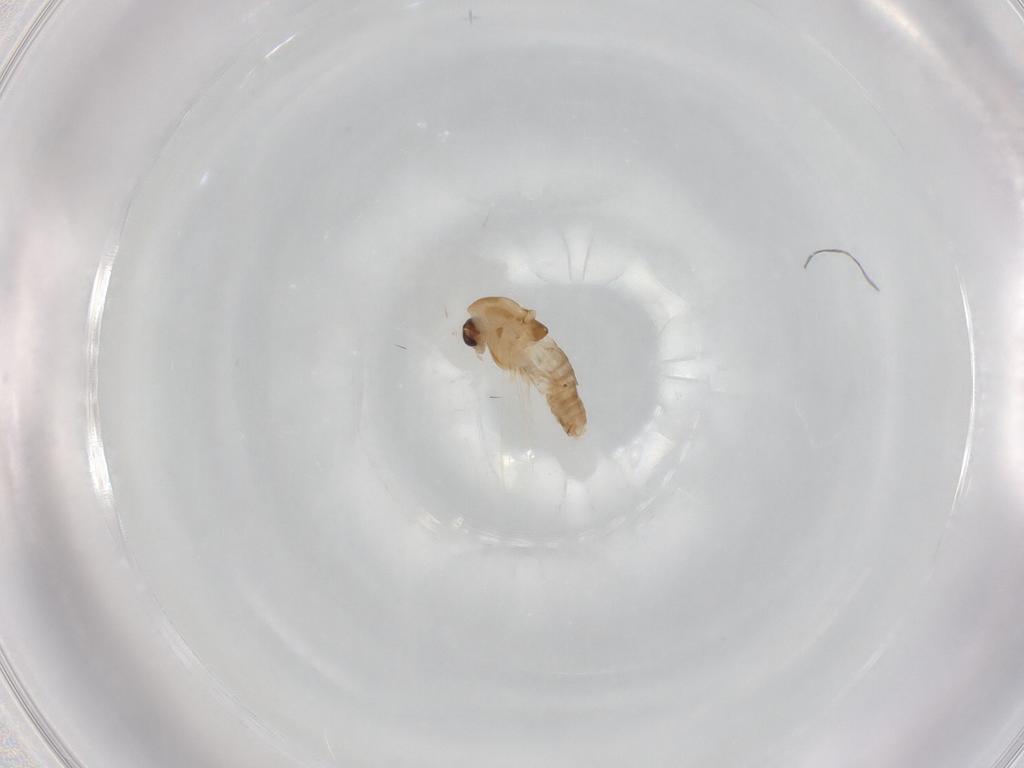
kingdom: Animalia
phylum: Arthropoda
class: Insecta
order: Diptera
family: Chironomidae
